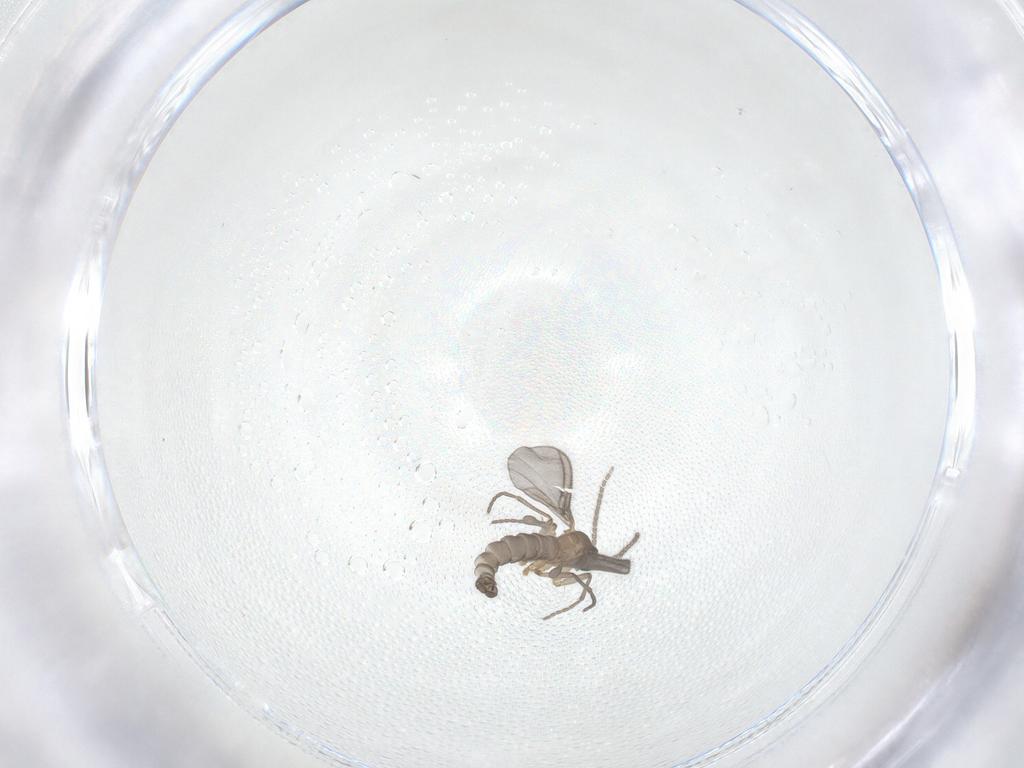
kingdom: Animalia
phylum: Arthropoda
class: Insecta
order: Diptera
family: Sciaridae
